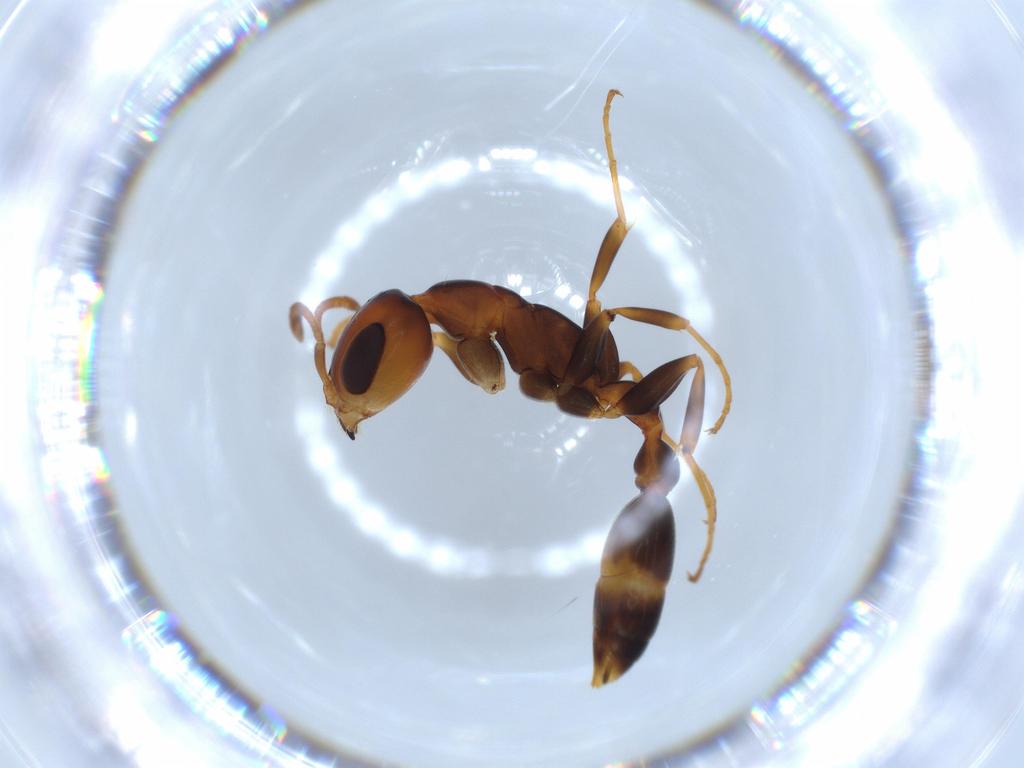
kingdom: Animalia
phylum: Arthropoda
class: Insecta
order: Hymenoptera
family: Formicidae
